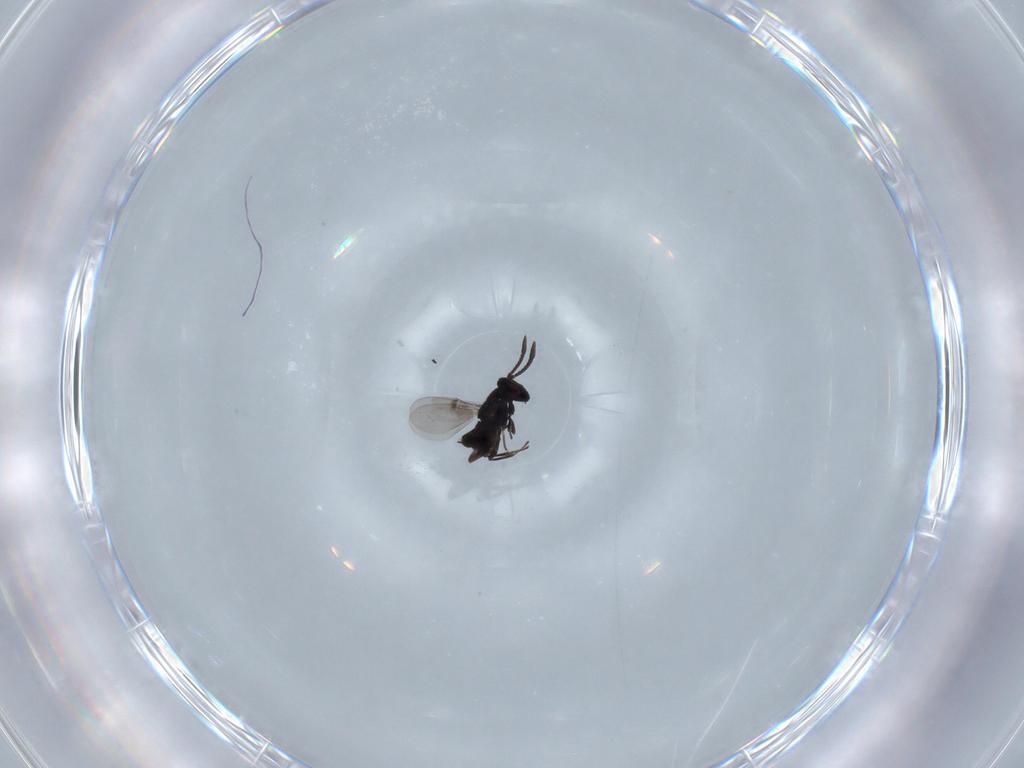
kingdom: Animalia
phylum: Arthropoda
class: Insecta
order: Hymenoptera
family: Encyrtidae
